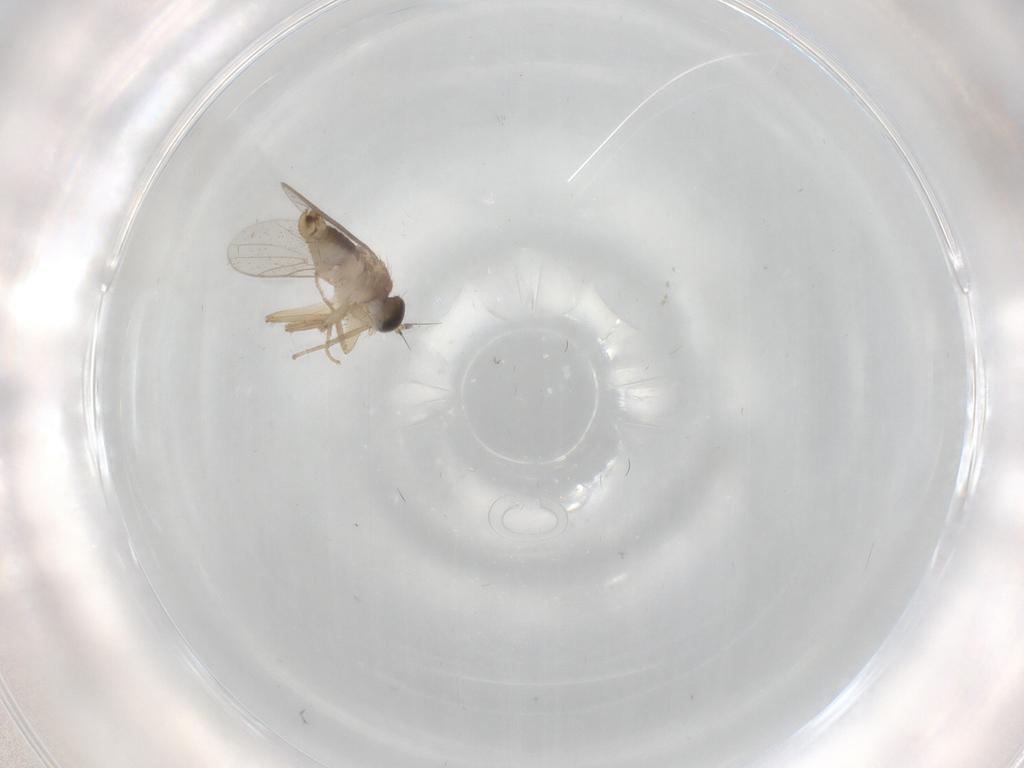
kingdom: Animalia
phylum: Arthropoda
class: Insecta
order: Diptera
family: Hybotidae
